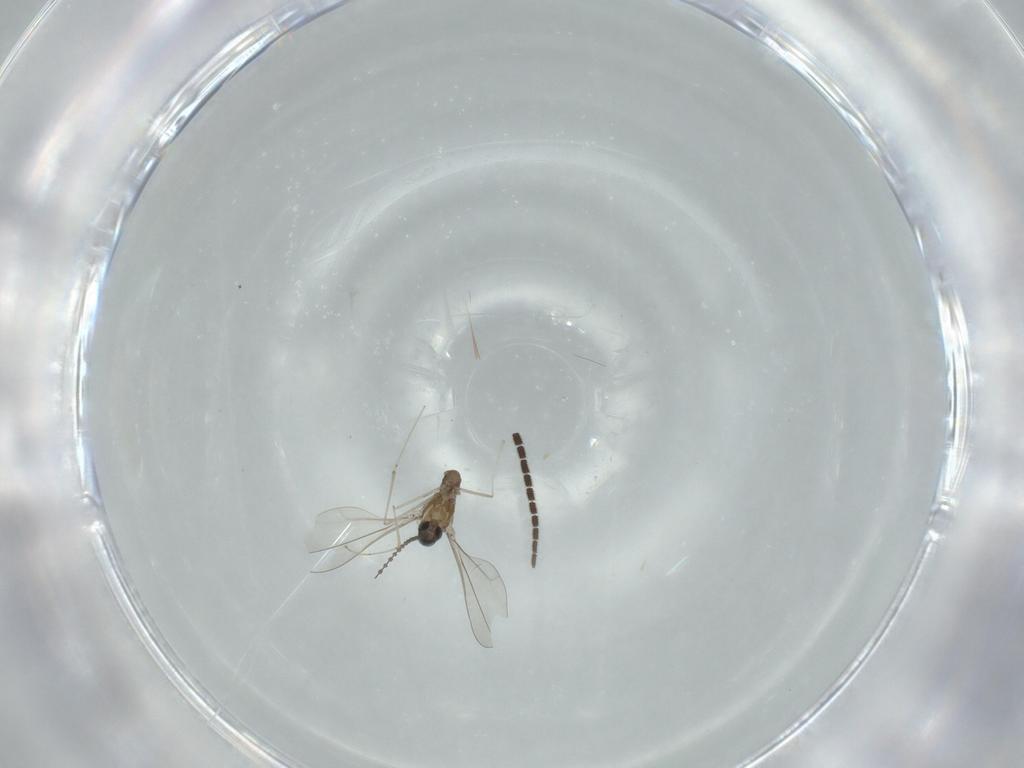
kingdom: Animalia
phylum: Arthropoda
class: Insecta
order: Diptera
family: Cecidomyiidae
